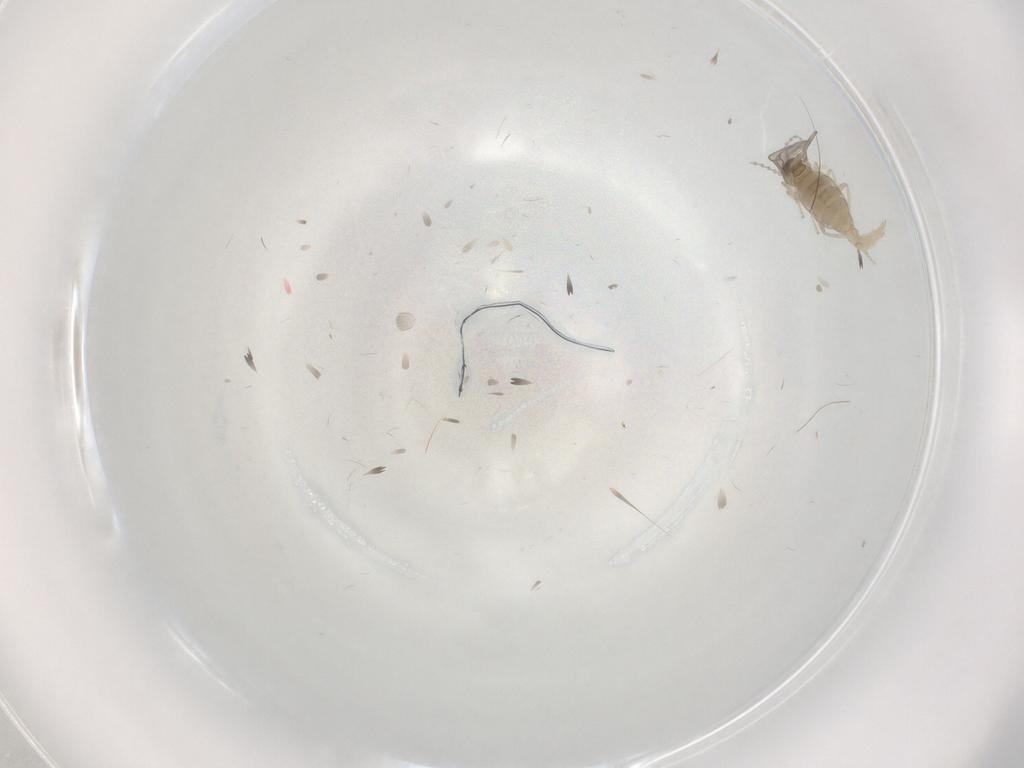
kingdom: Animalia
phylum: Arthropoda
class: Insecta
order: Diptera
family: Cecidomyiidae
